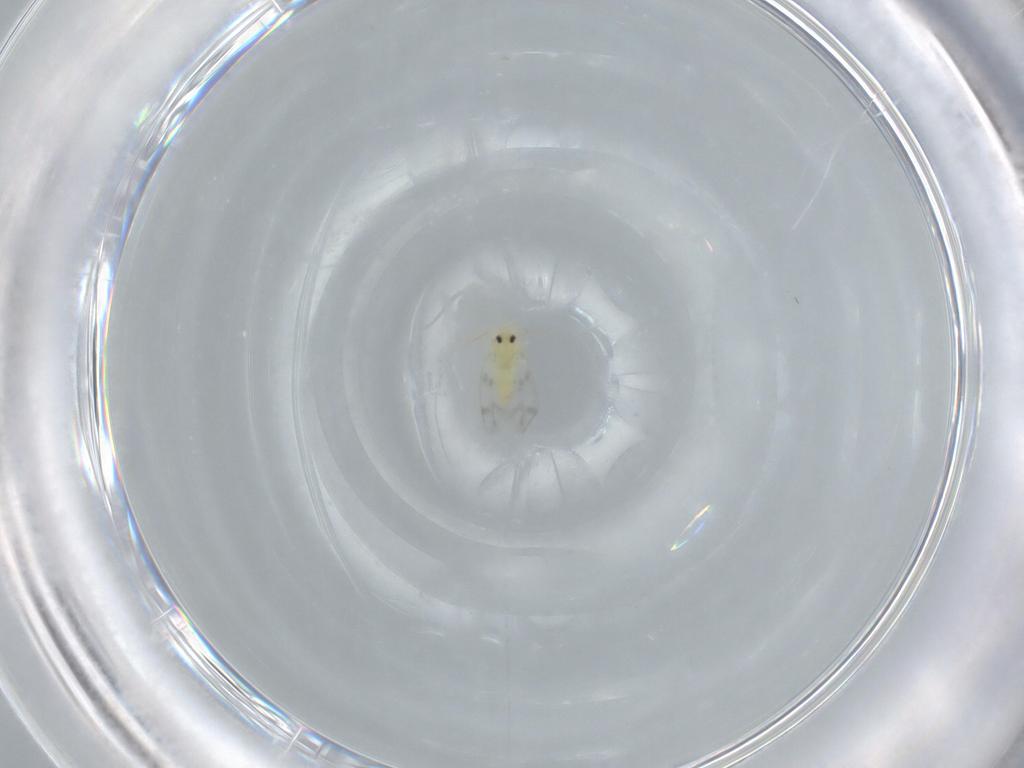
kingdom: Animalia
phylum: Arthropoda
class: Insecta
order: Hemiptera
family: Aleyrodidae
